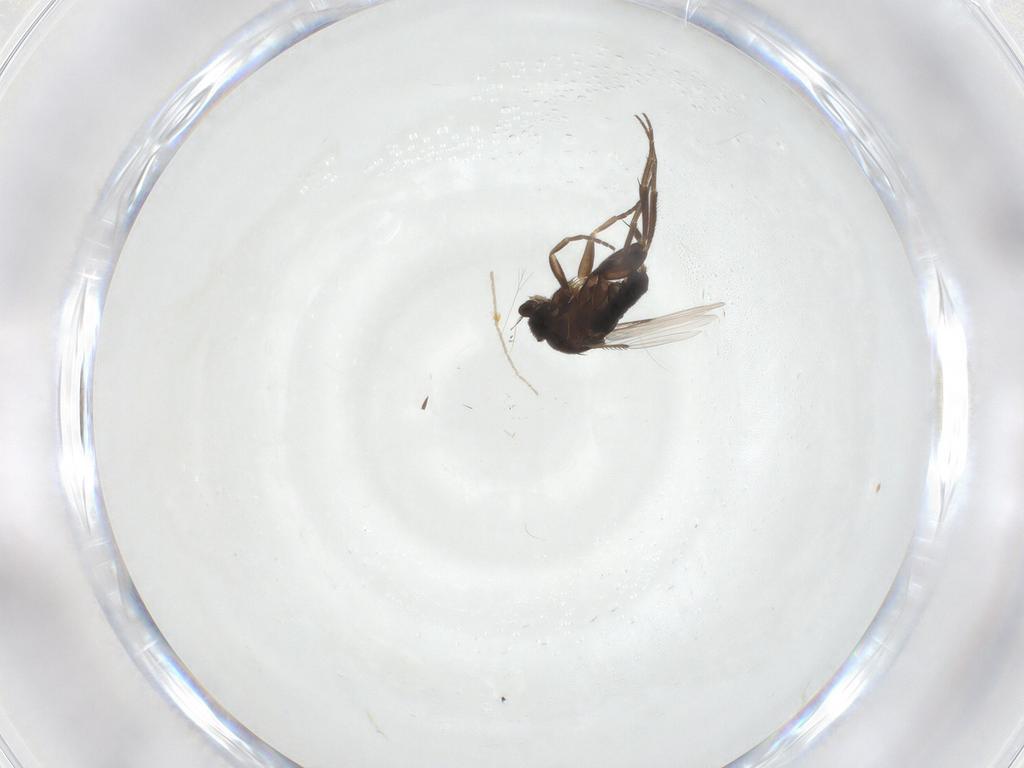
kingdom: Animalia
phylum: Arthropoda
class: Insecta
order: Diptera
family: Phoridae
